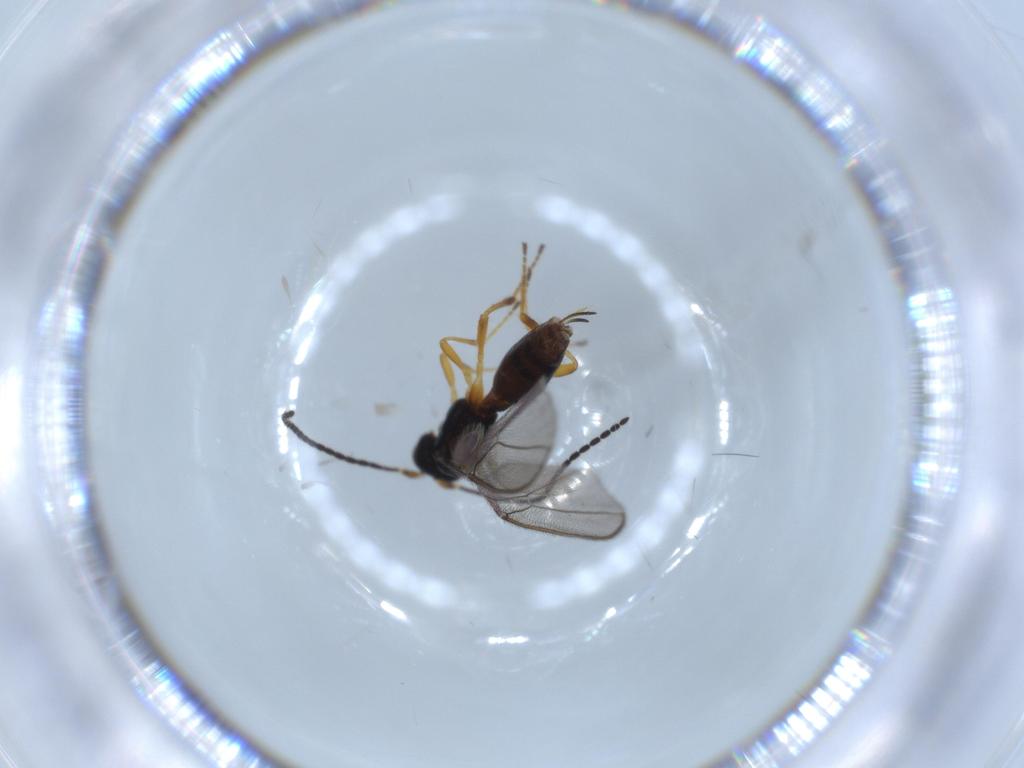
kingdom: Animalia
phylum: Arthropoda
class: Insecta
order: Hymenoptera
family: Braconidae
